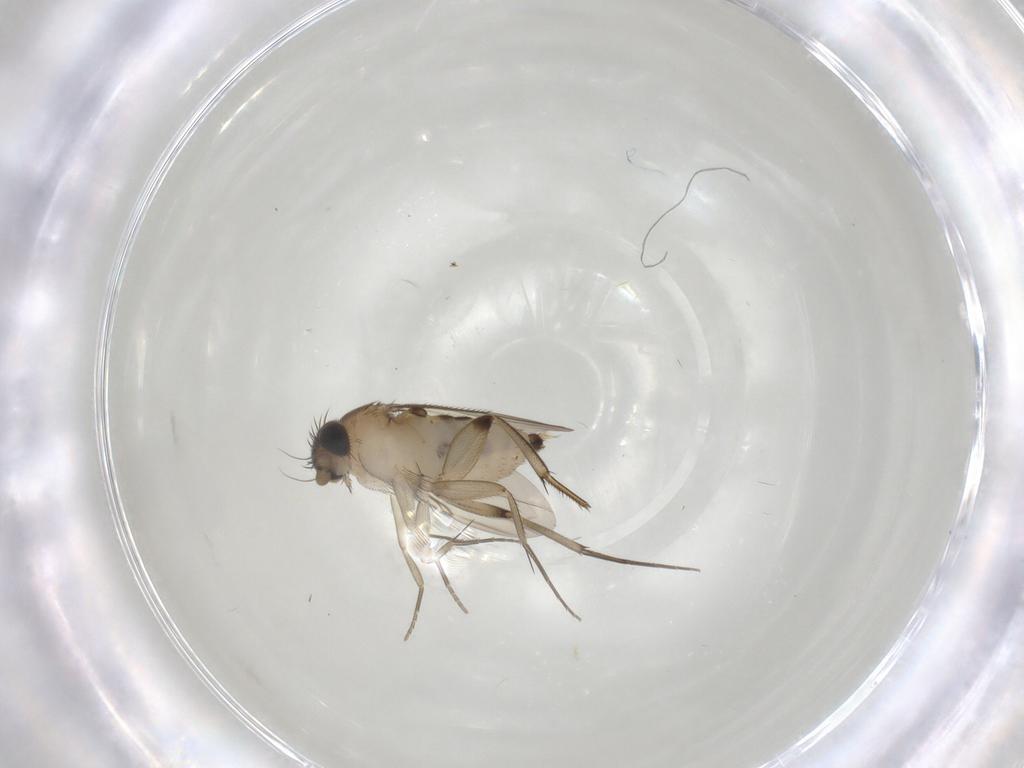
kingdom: Animalia
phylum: Arthropoda
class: Insecta
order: Diptera
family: Phoridae
